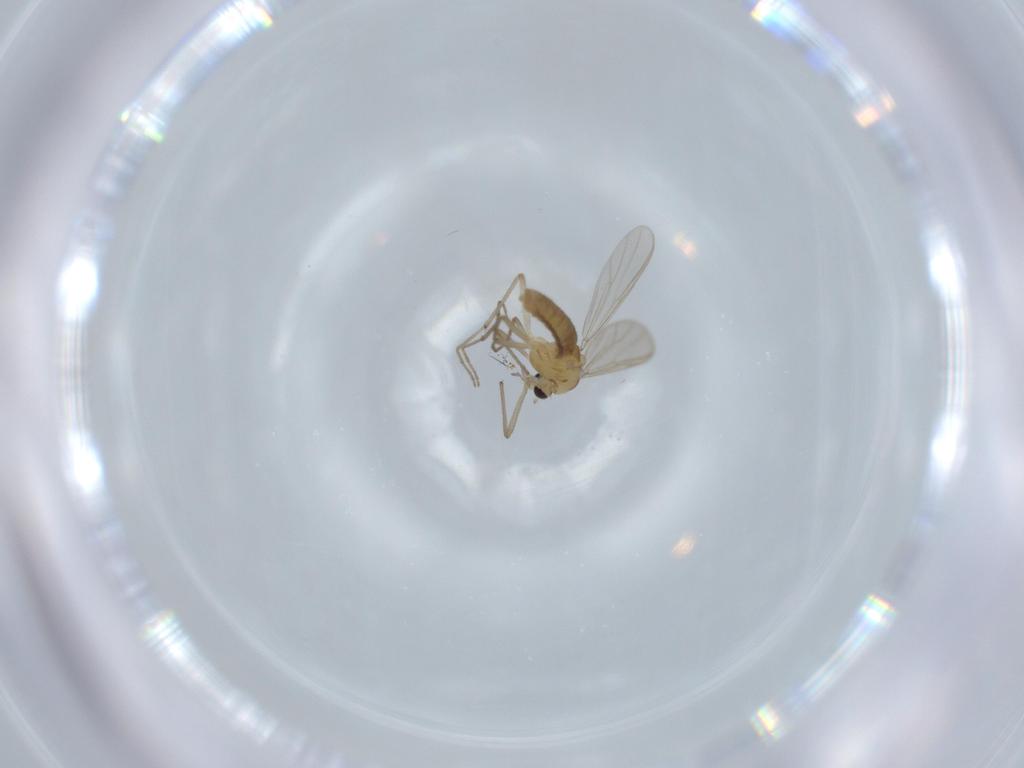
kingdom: Animalia
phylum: Arthropoda
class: Insecta
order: Diptera
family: Chironomidae
